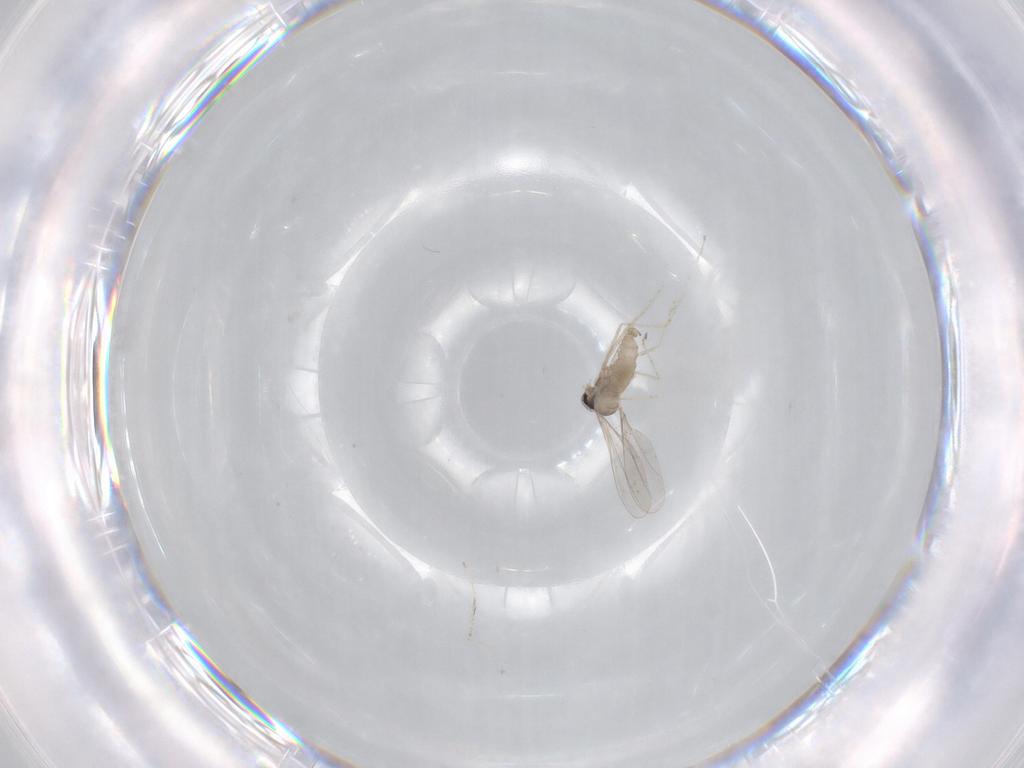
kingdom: Animalia
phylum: Arthropoda
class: Insecta
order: Diptera
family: Cecidomyiidae
